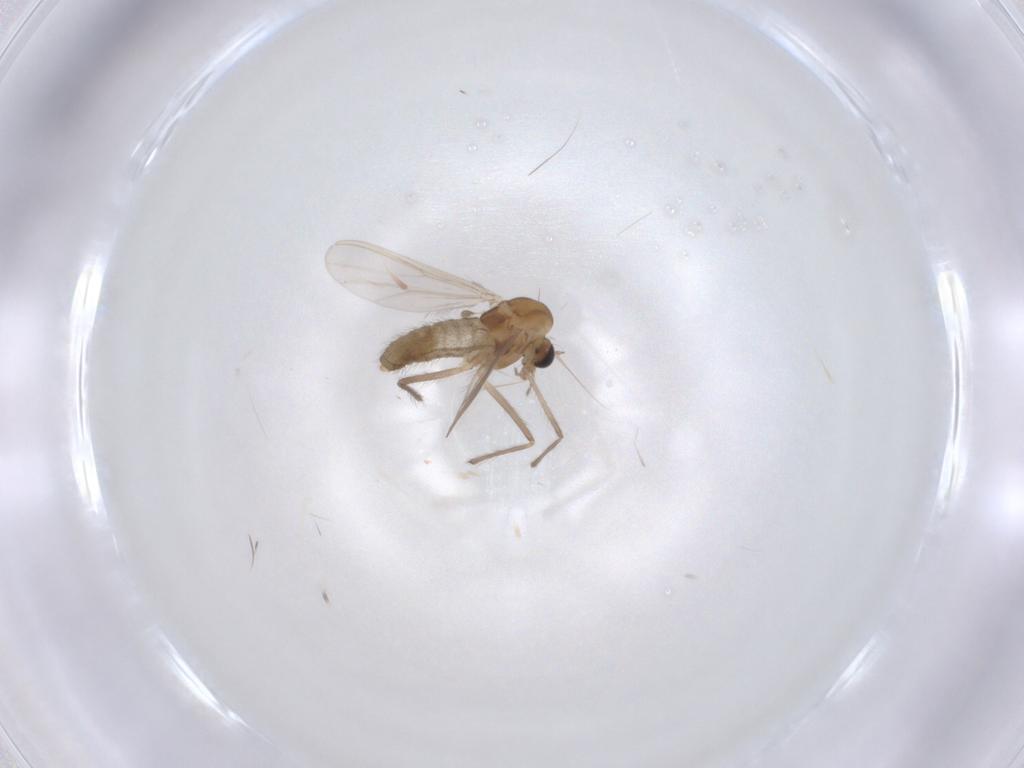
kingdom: Animalia
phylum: Arthropoda
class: Insecta
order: Diptera
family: Chironomidae
